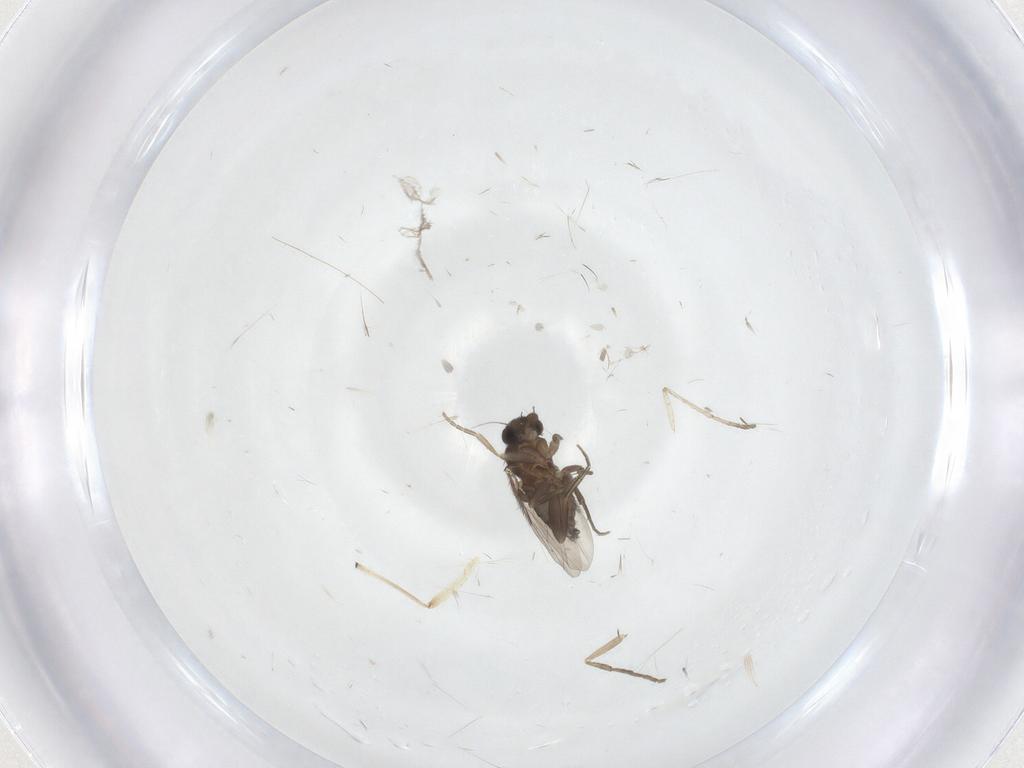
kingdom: Animalia
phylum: Arthropoda
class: Insecta
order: Diptera
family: Chironomidae
